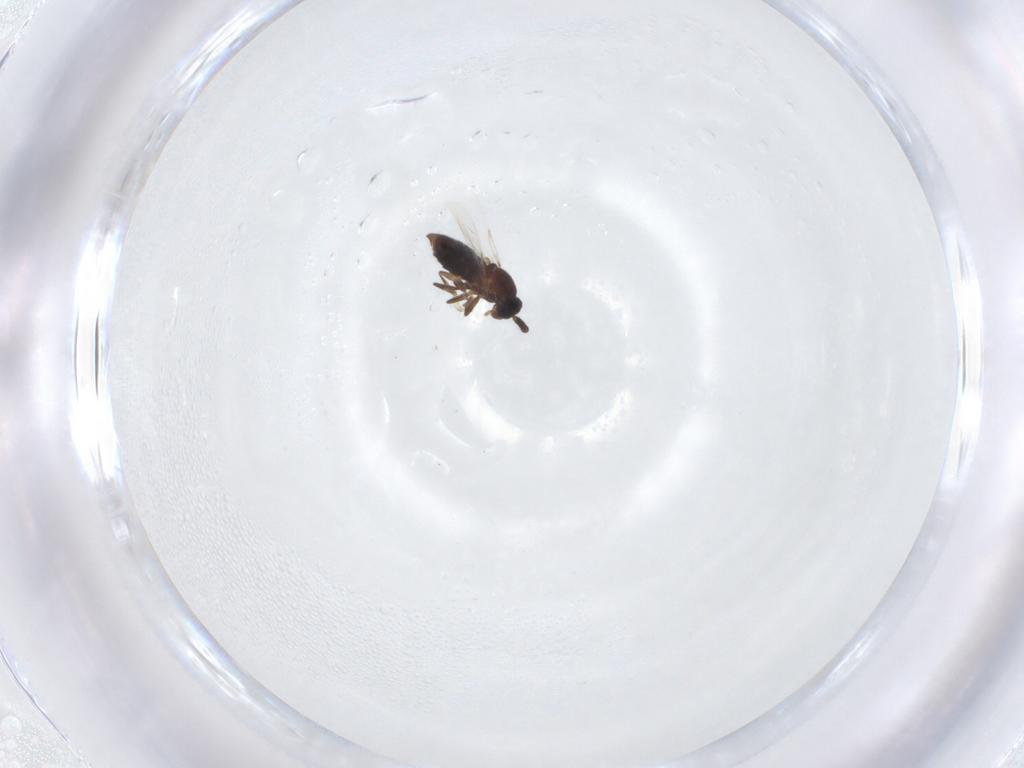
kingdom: Animalia
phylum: Arthropoda
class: Insecta
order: Diptera
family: Scatopsidae
